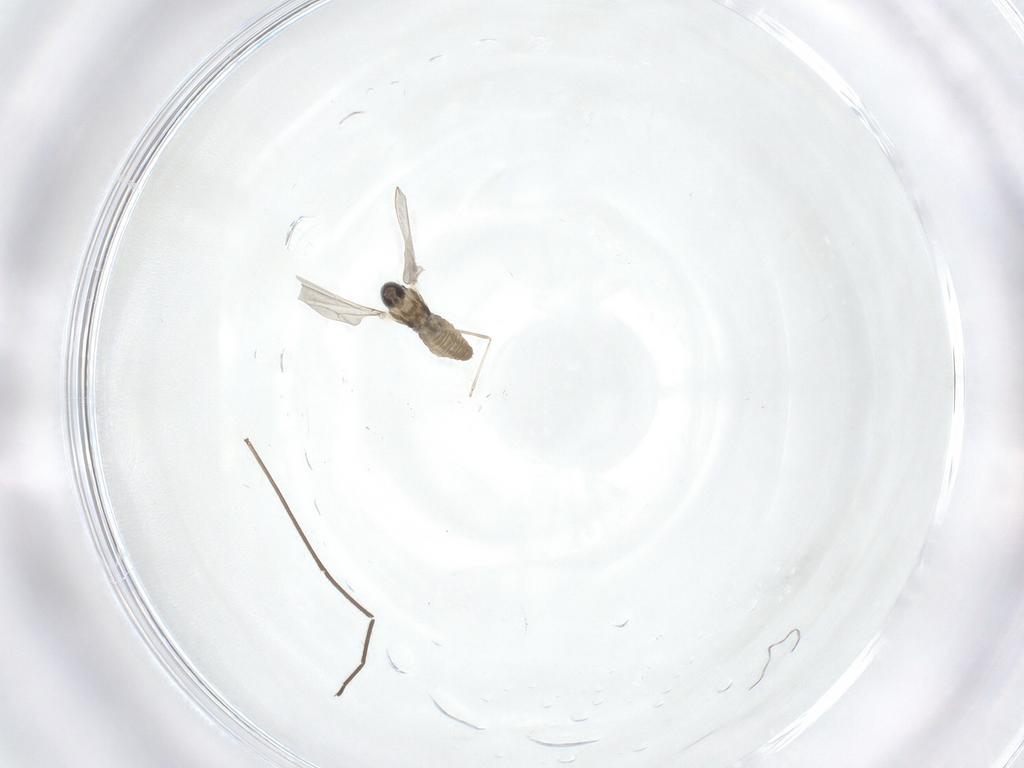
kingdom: Animalia
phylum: Arthropoda
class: Insecta
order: Diptera
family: Cecidomyiidae
